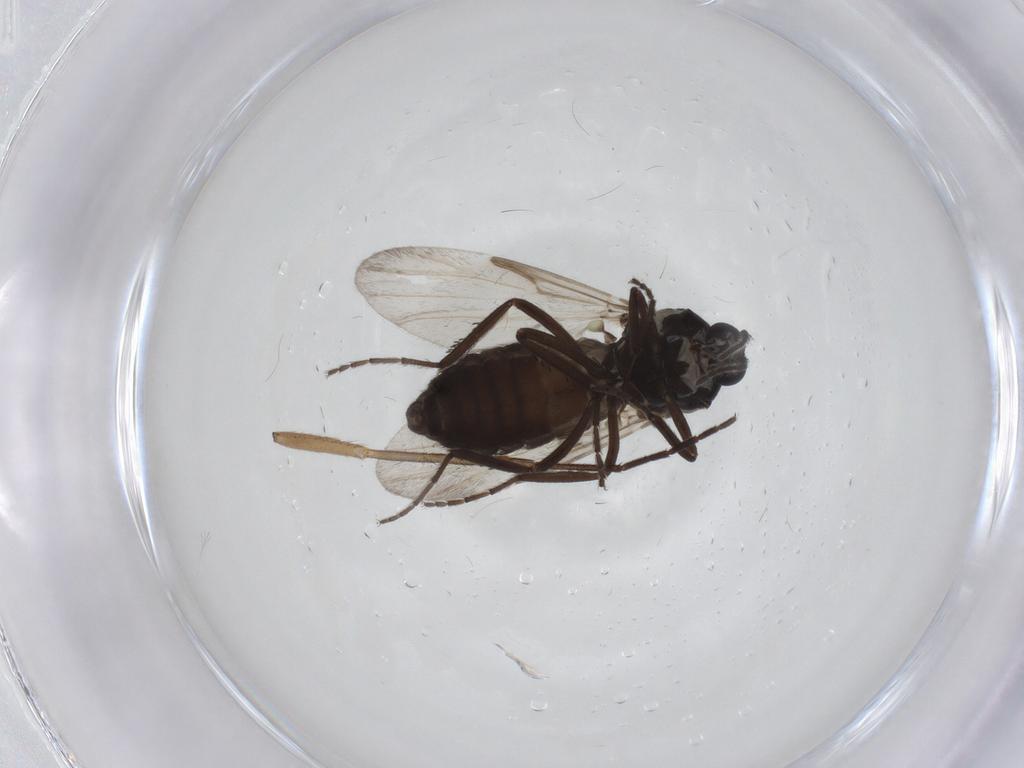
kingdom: Animalia
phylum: Arthropoda
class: Insecta
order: Diptera
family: Mycetophilidae
